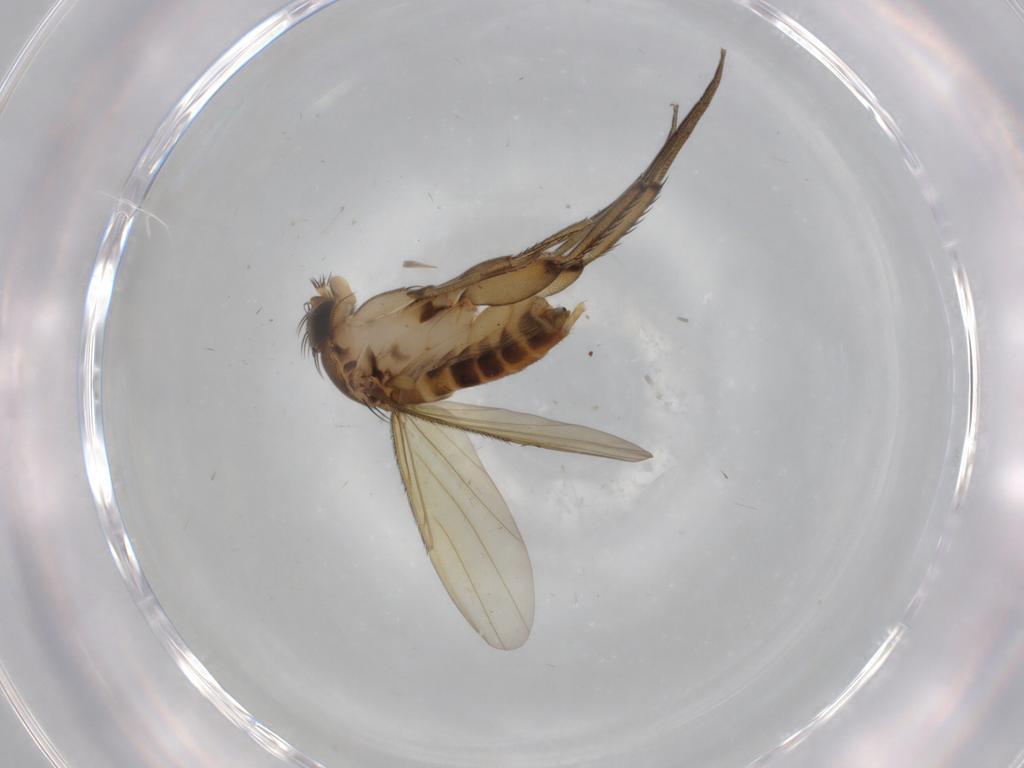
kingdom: Animalia
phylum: Arthropoda
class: Insecta
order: Diptera
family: Phoridae
